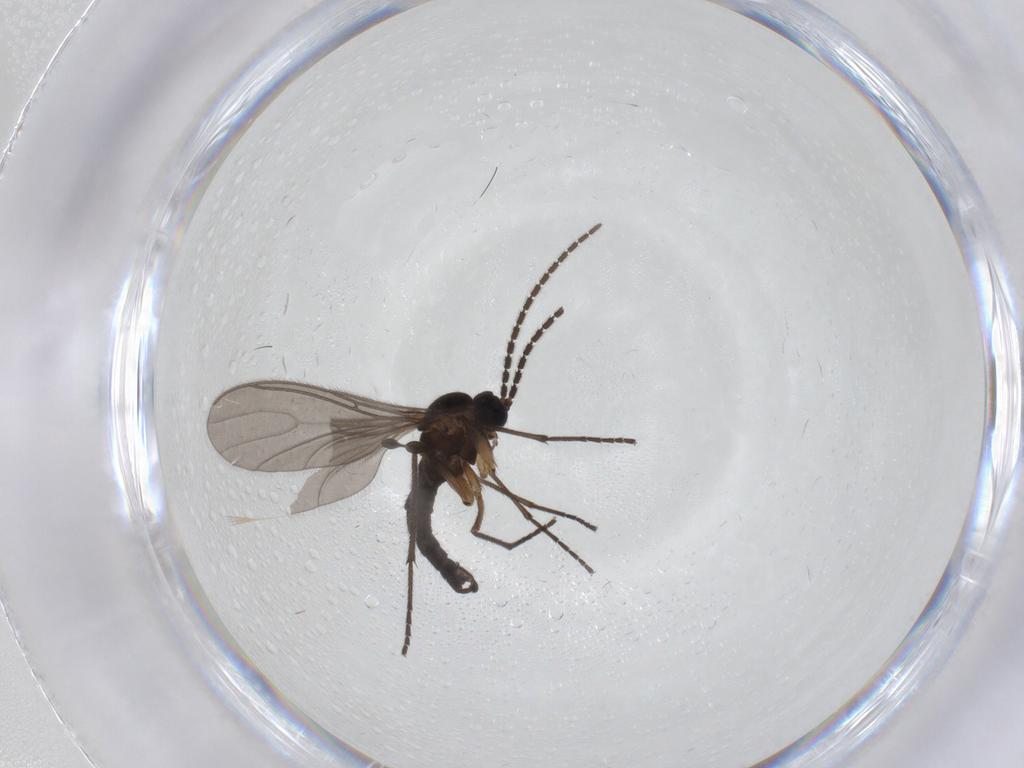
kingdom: Animalia
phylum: Arthropoda
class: Insecta
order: Diptera
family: Sciaridae
